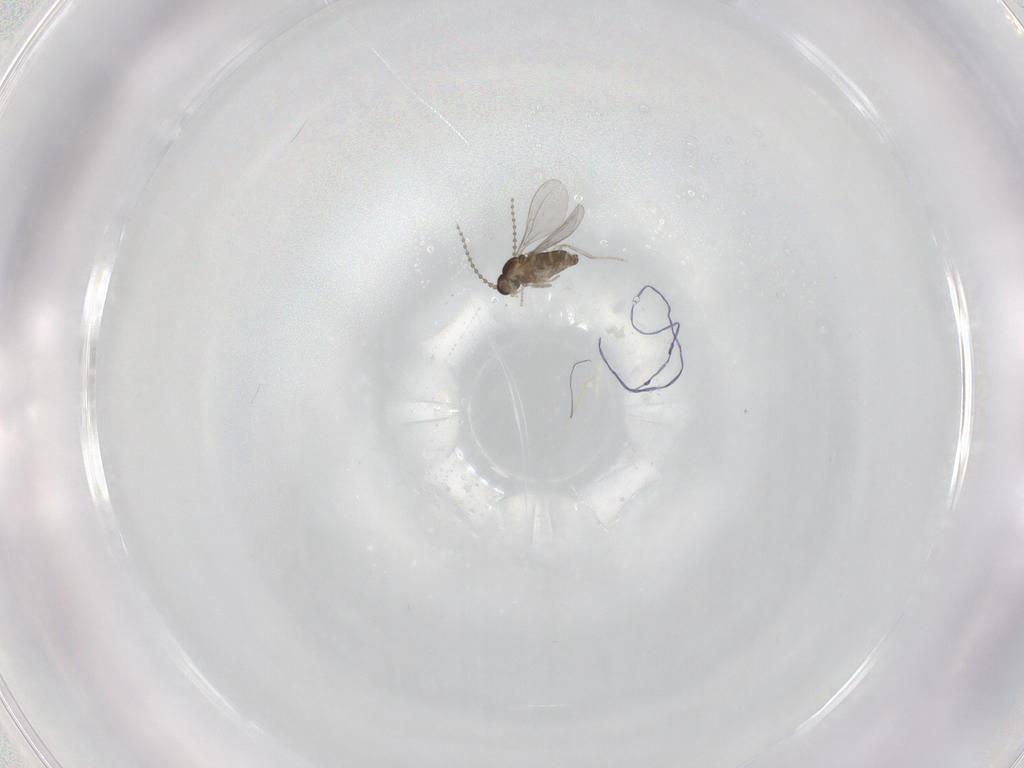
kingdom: Animalia
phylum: Arthropoda
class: Insecta
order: Diptera
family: Cecidomyiidae
